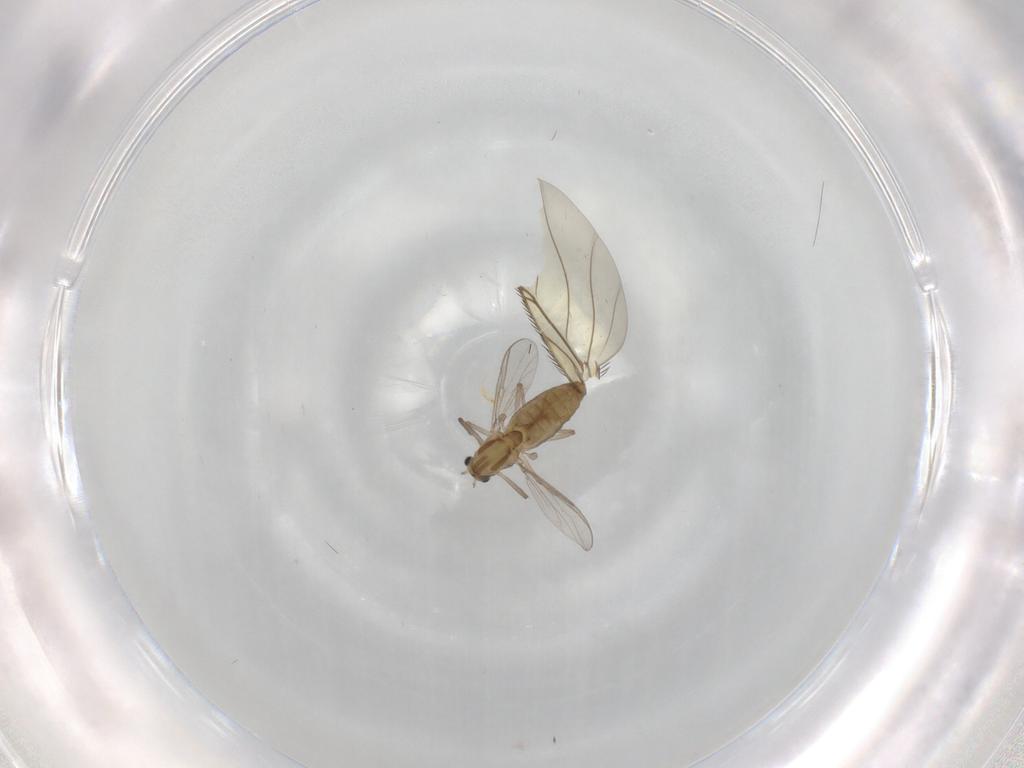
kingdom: Animalia
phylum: Arthropoda
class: Insecta
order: Diptera
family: Chironomidae
